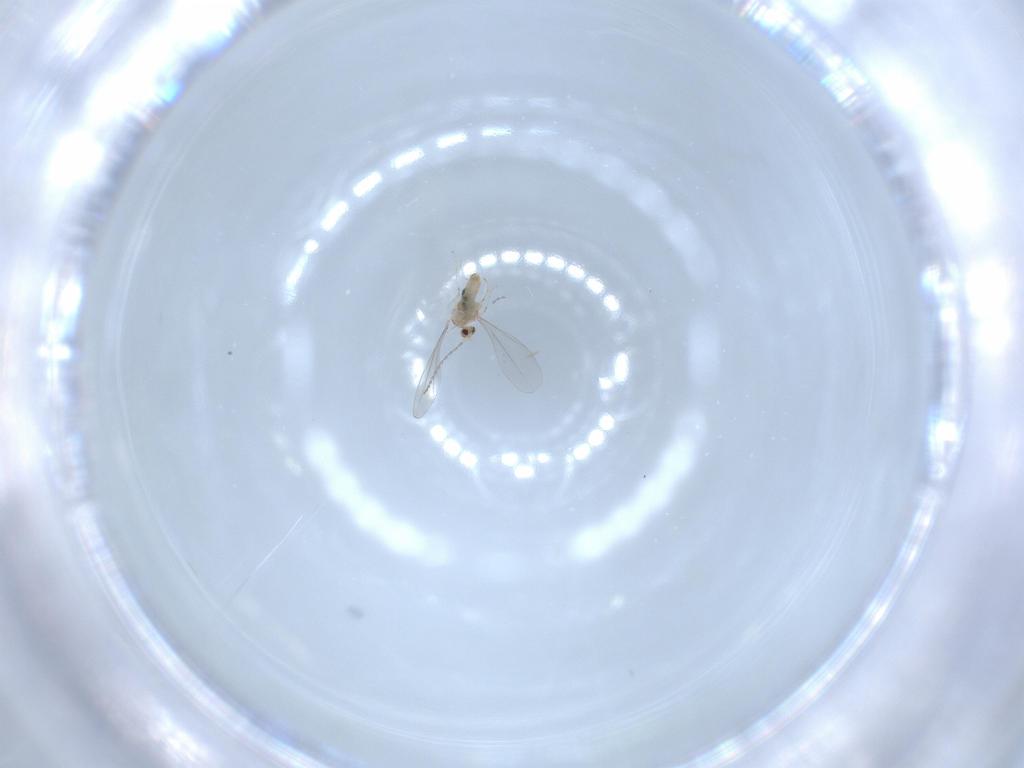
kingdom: Animalia
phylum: Arthropoda
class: Insecta
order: Diptera
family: Cecidomyiidae
